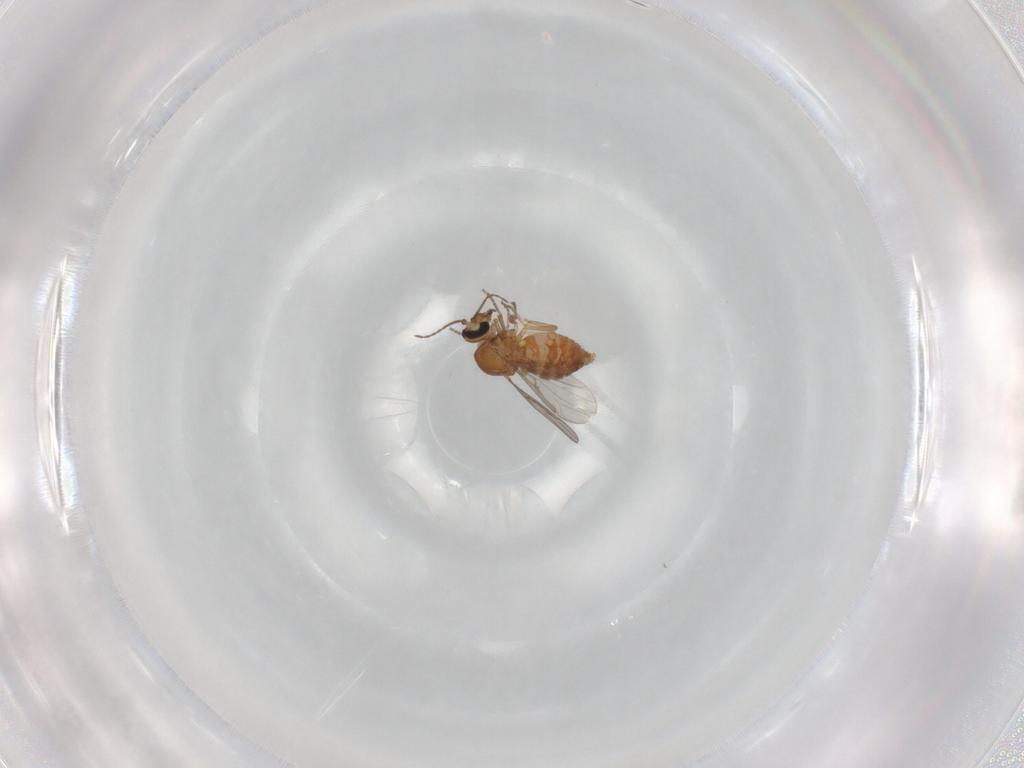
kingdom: Animalia
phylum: Arthropoda
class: Insecta
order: Diptera
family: Ceratopogonidae
